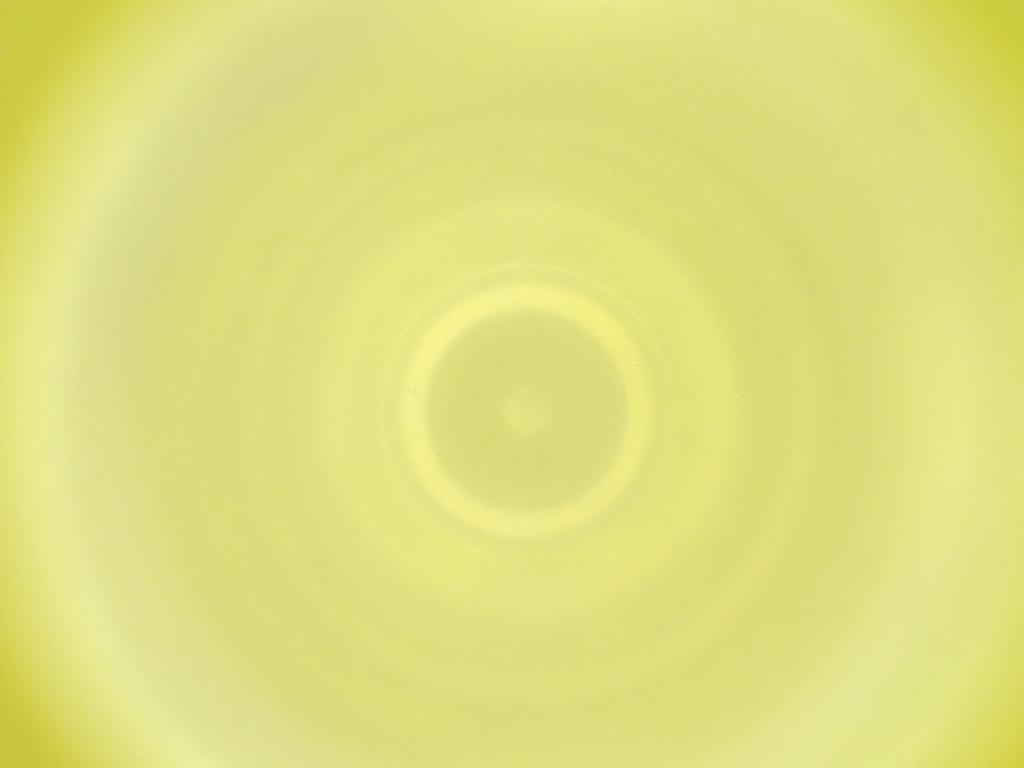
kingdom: Animalia
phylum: Arthropoda
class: Insecta
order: Diptera
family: Cecidomyiidae
